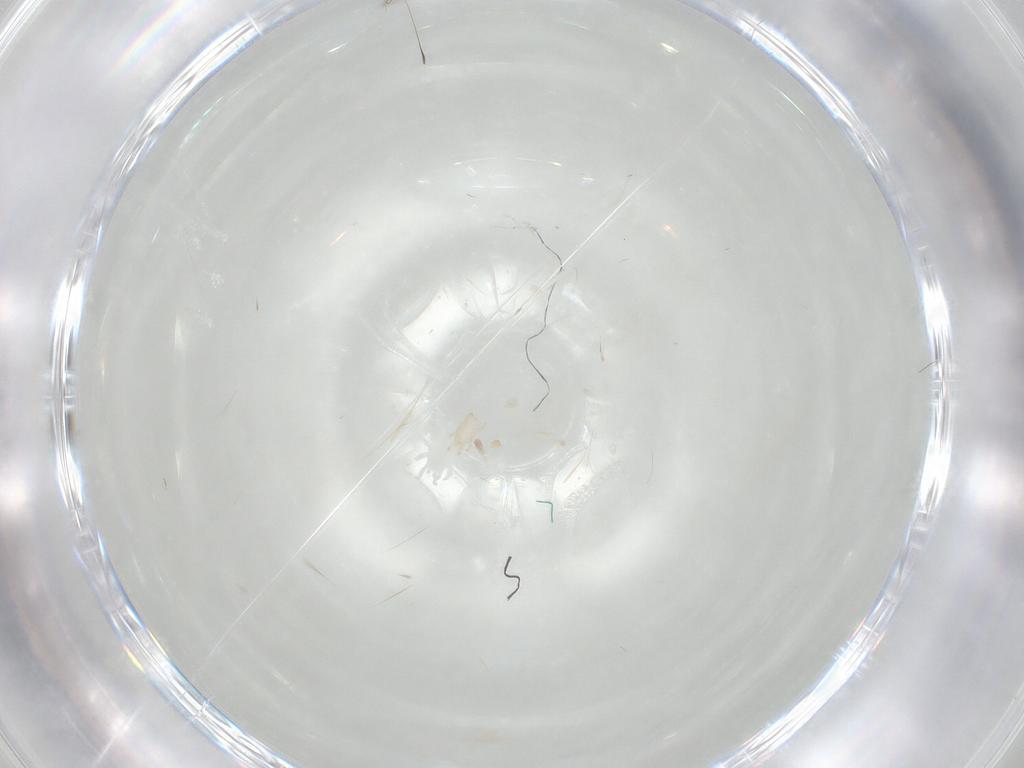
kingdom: Animalia
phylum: Arthropoda
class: Arachnida
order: Mesostigmata
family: Halolaelapidae
